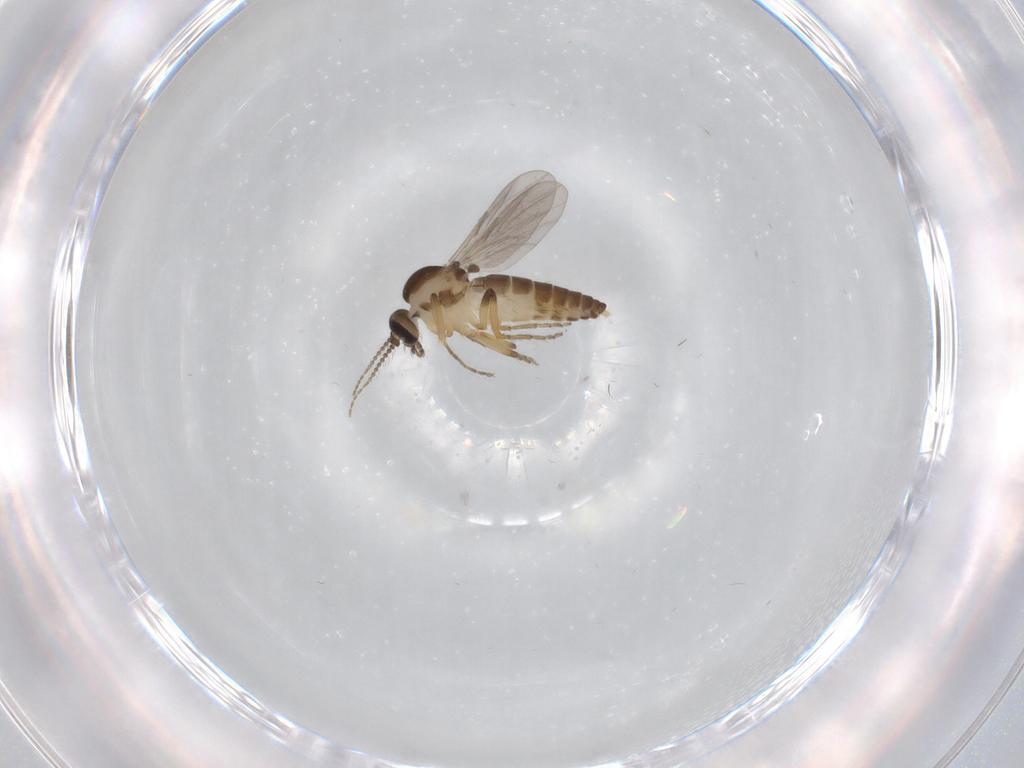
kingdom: Animalia
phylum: Arthropoda
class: Insecta
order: Diptera
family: Ceratopogonidae
